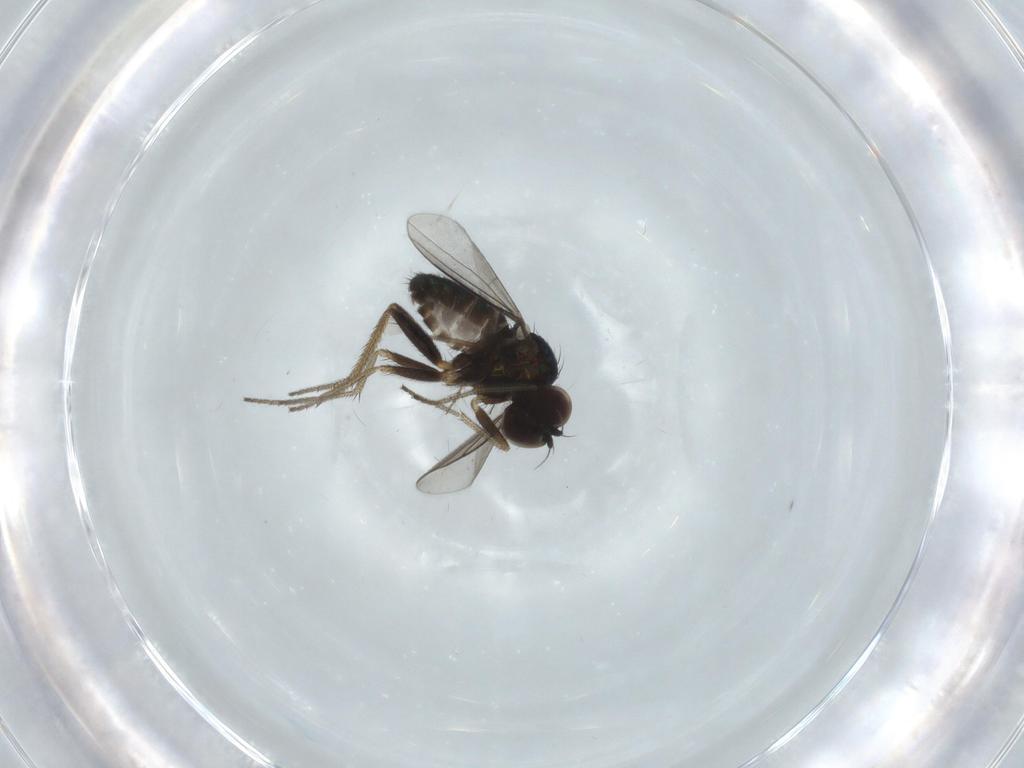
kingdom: Animalia
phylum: Arthropoda
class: Insecta
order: Diptera
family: Dolichopodidae
